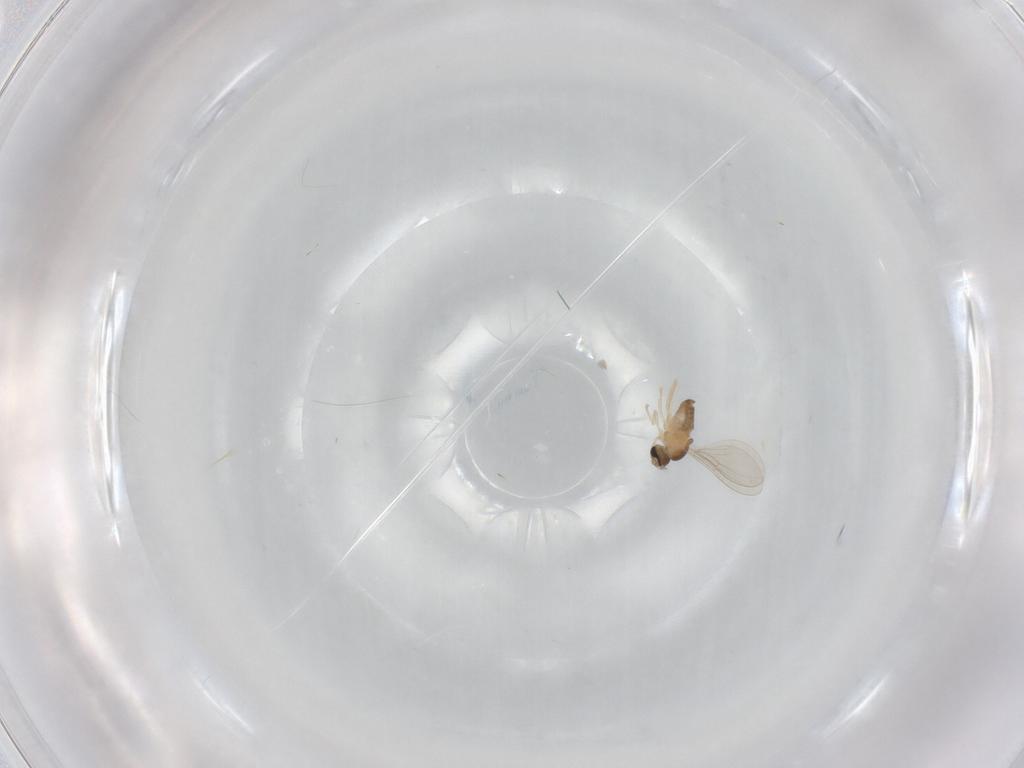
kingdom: Animalia
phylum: Arthropoda
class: Insecta
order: Diptera
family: Cecidomyiidae
